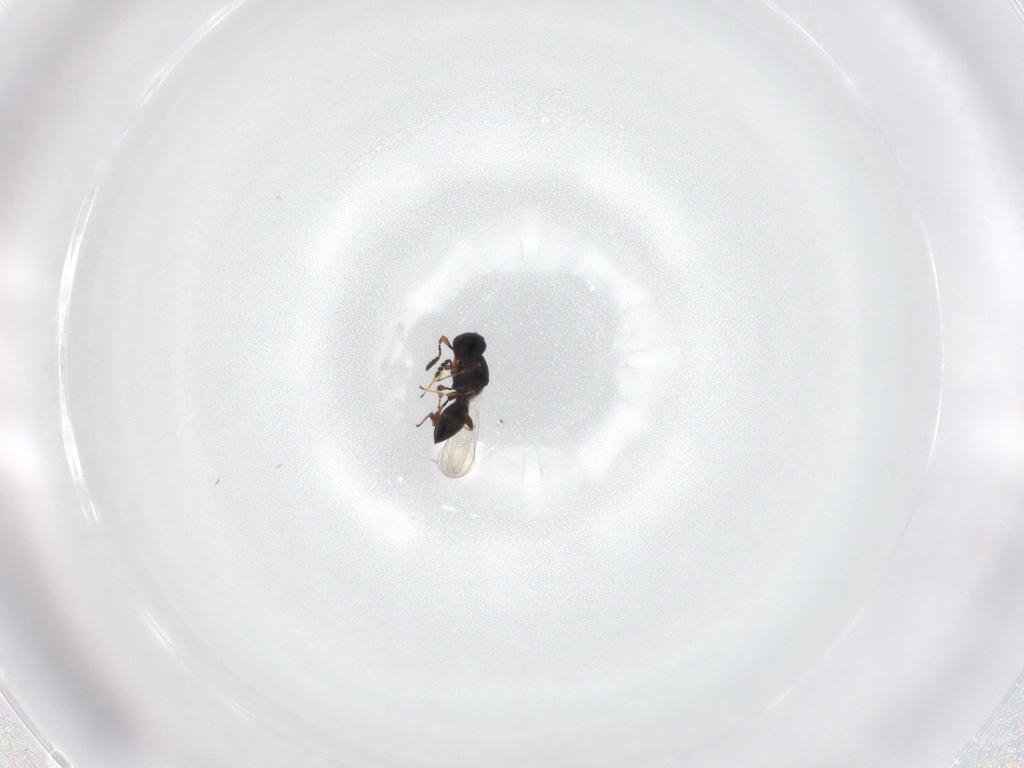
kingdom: Animalia
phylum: Arthropoda
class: Insecta
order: Hymenoptera
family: Platygastridae
